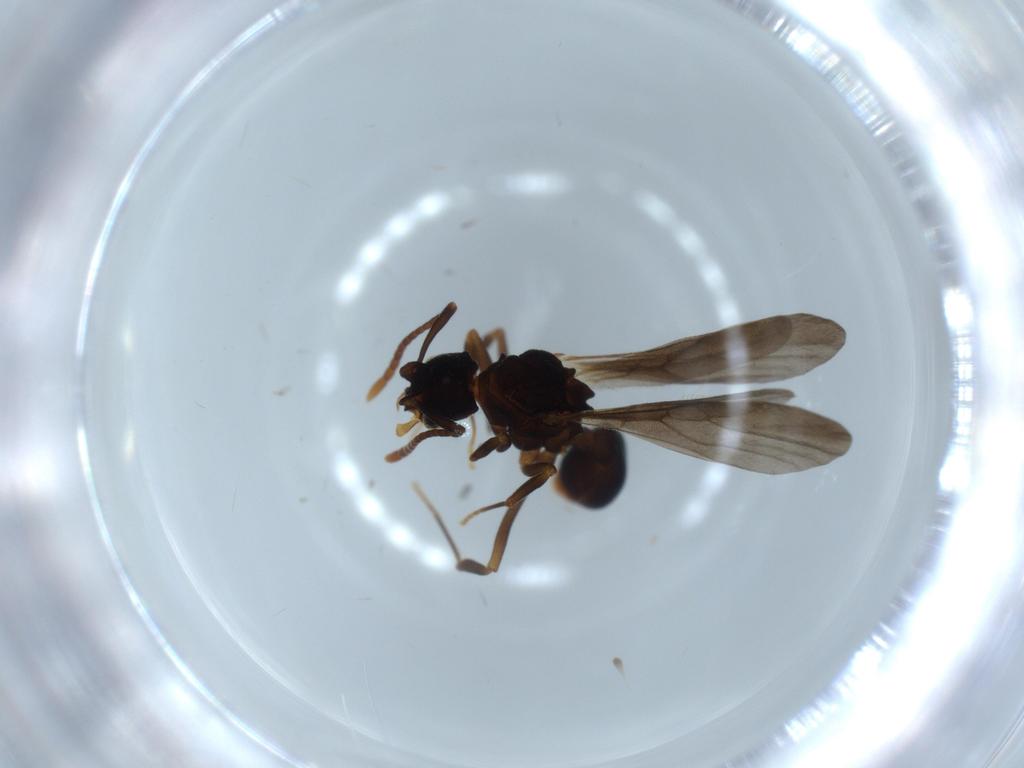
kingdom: Animalia
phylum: Arthropoda
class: Insecta
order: Hymenoptera
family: Formicidae
